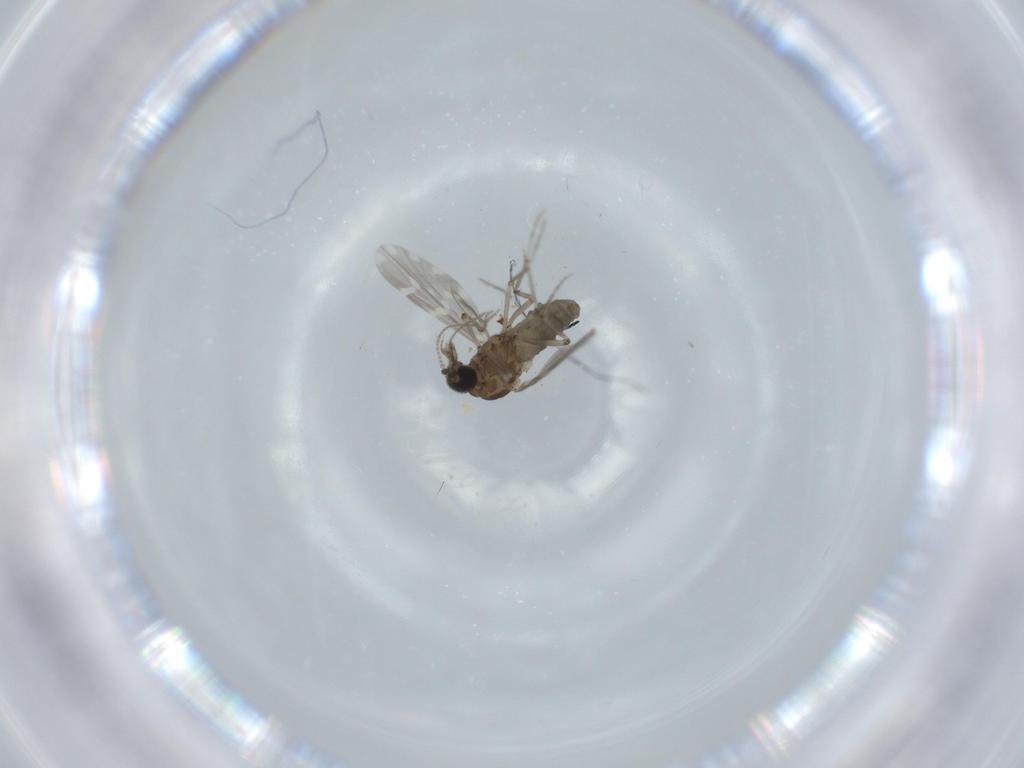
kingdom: Animalia
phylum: Arthropoda
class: Insecta
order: Diptera
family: Ceratopogonidae
